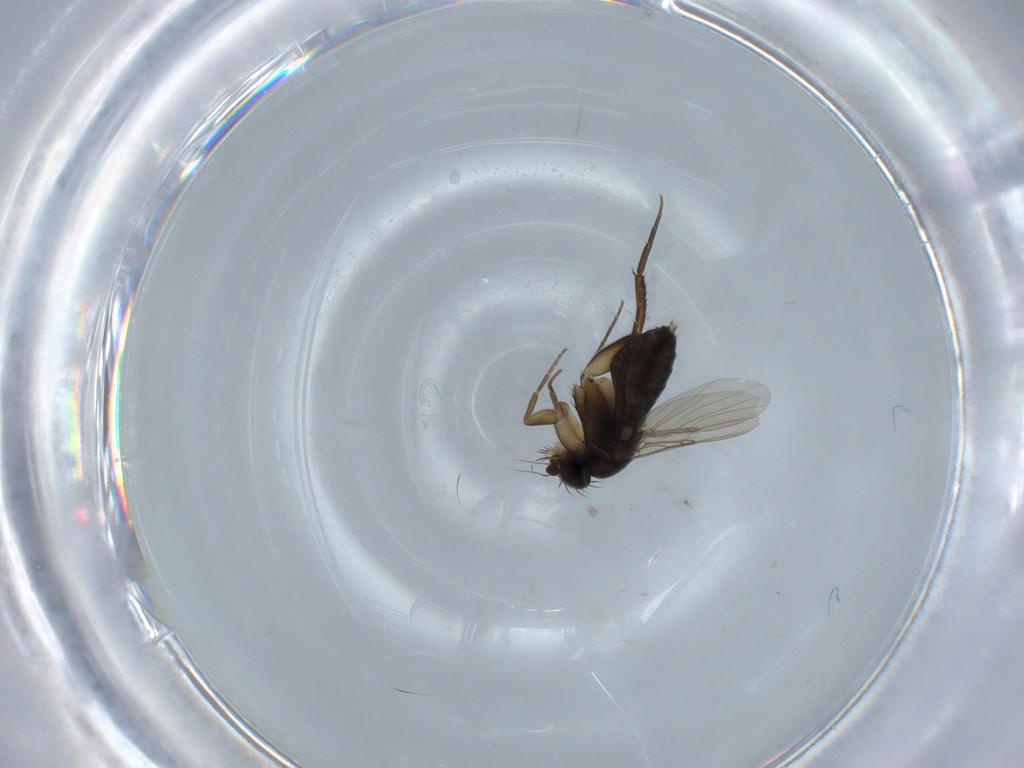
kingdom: Animalia
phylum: Arthropoda
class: Insecta
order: Diptera
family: Phoridae
